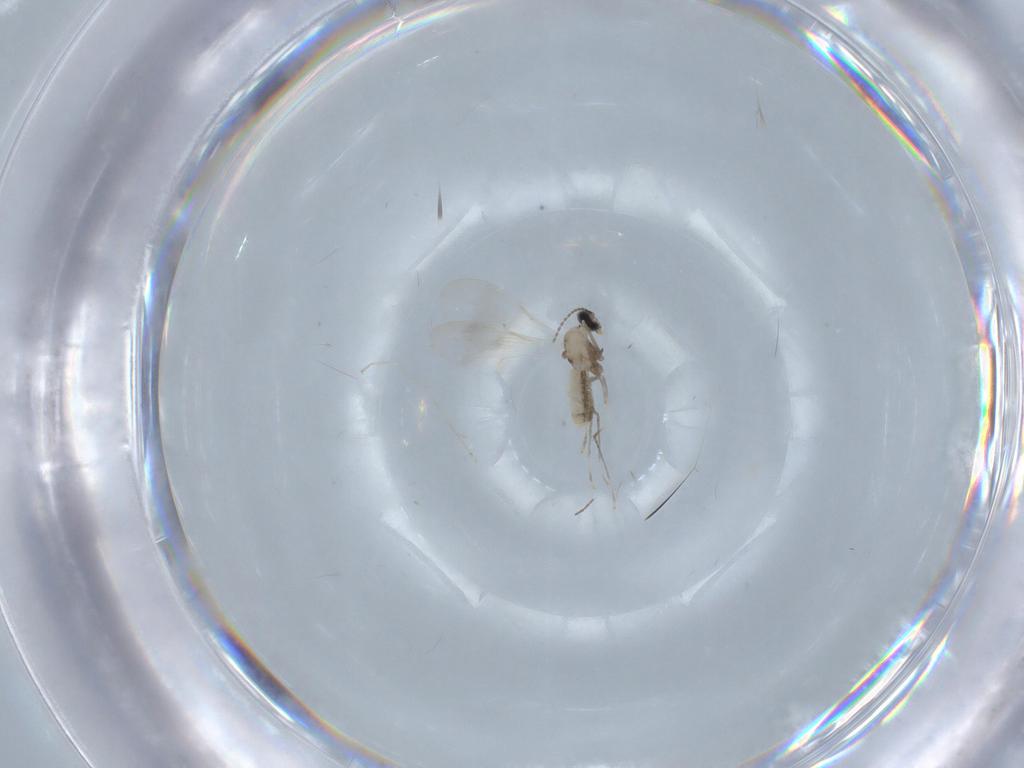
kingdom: Animalia
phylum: Arthropoda
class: Insecta
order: Diptera
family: Cecidomyiidae
